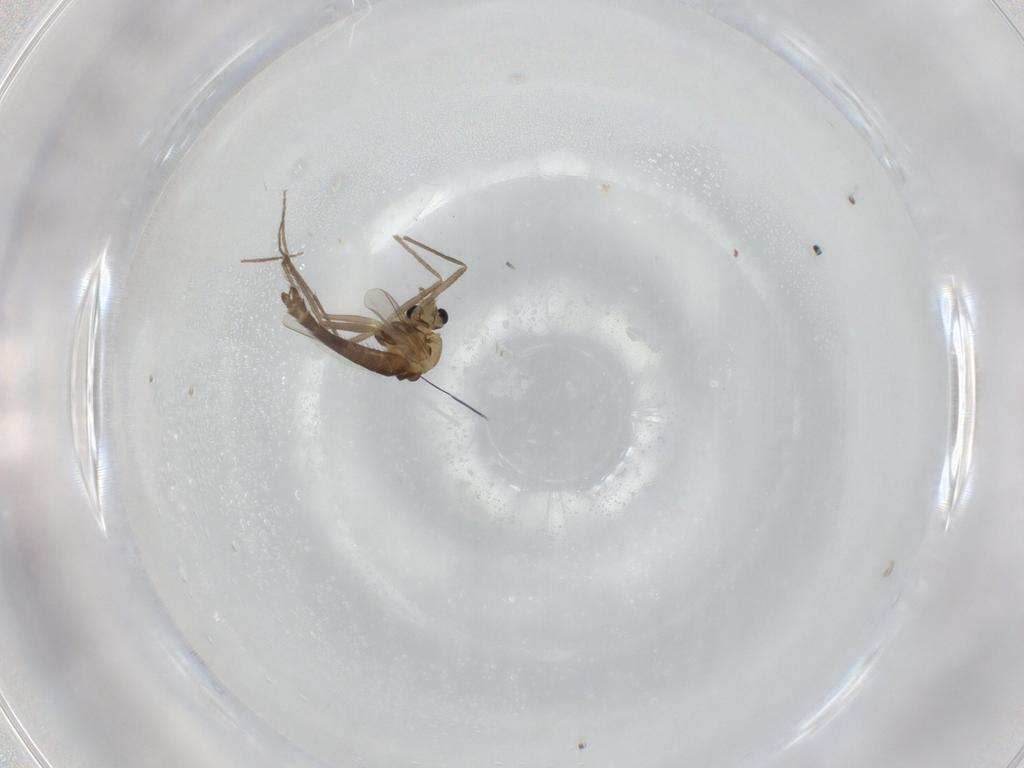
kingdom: Animalia
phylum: Arthropoda
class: Insecta
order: Diptera
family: Chironomidae
